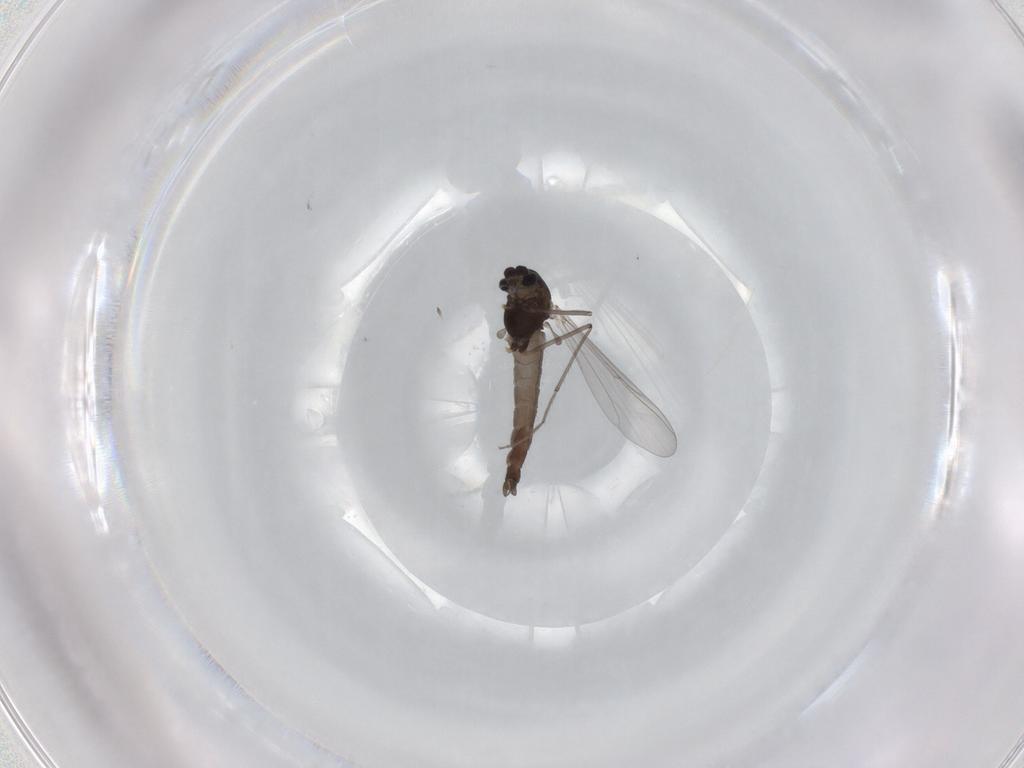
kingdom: Animalia
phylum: Arthropoda
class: Insecta
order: Diptera
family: Chironomidae
